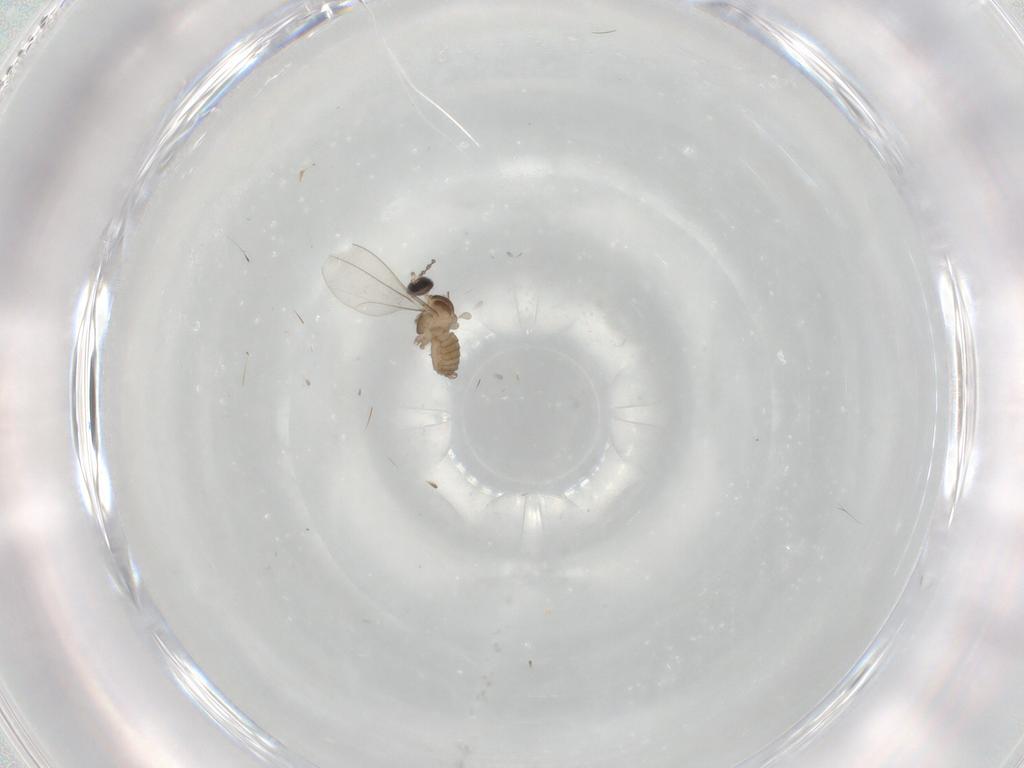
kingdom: Animalia
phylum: Arthropoda
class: Insecta
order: Diptera
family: Cecidomyiidae
